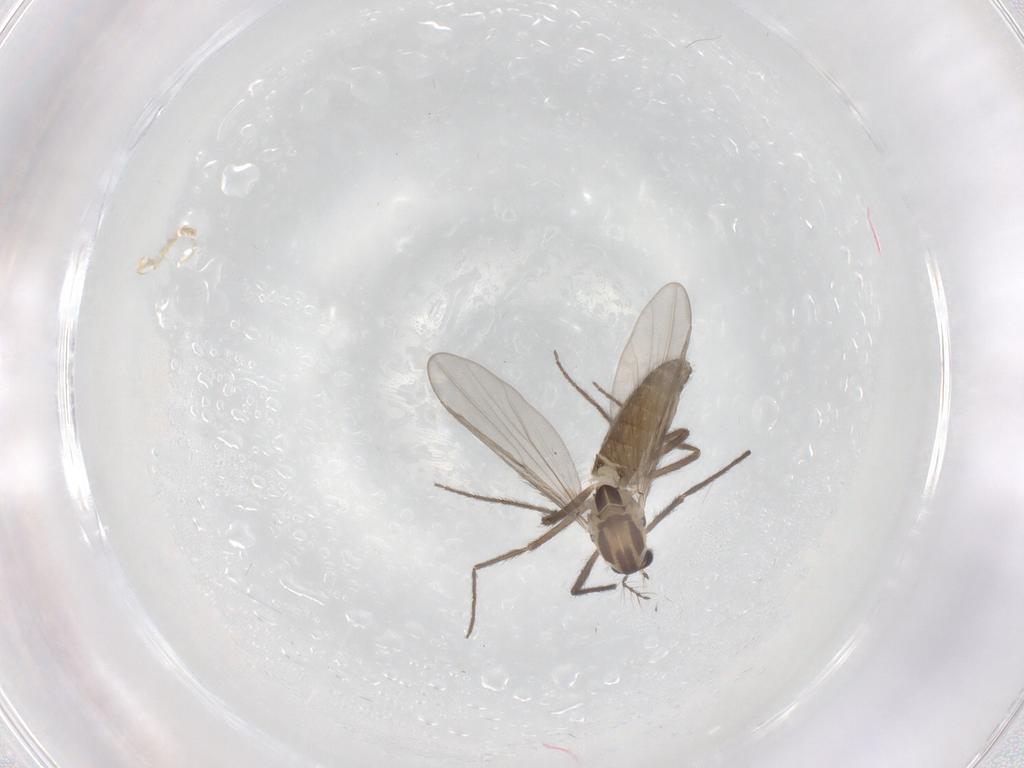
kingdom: Animalia
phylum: Arthropoda
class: Insecta
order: Diptera
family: Chironomidae
